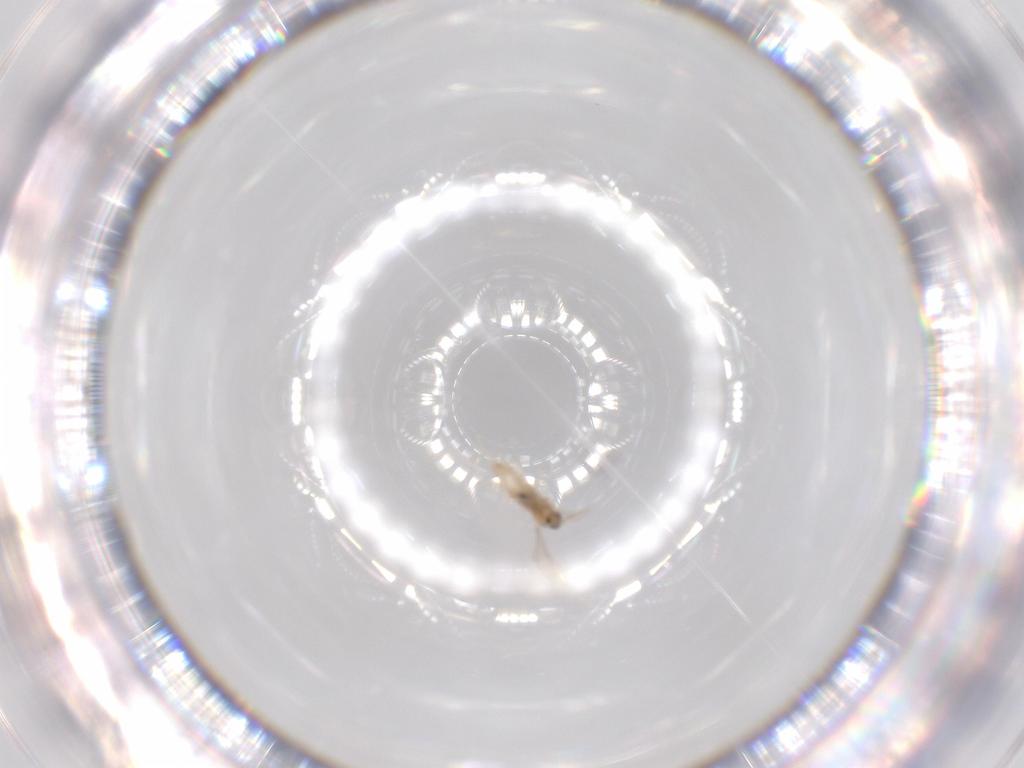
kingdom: Animalia
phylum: Arthropoda
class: Insecta
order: Diptera
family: Cecidomyiidae
